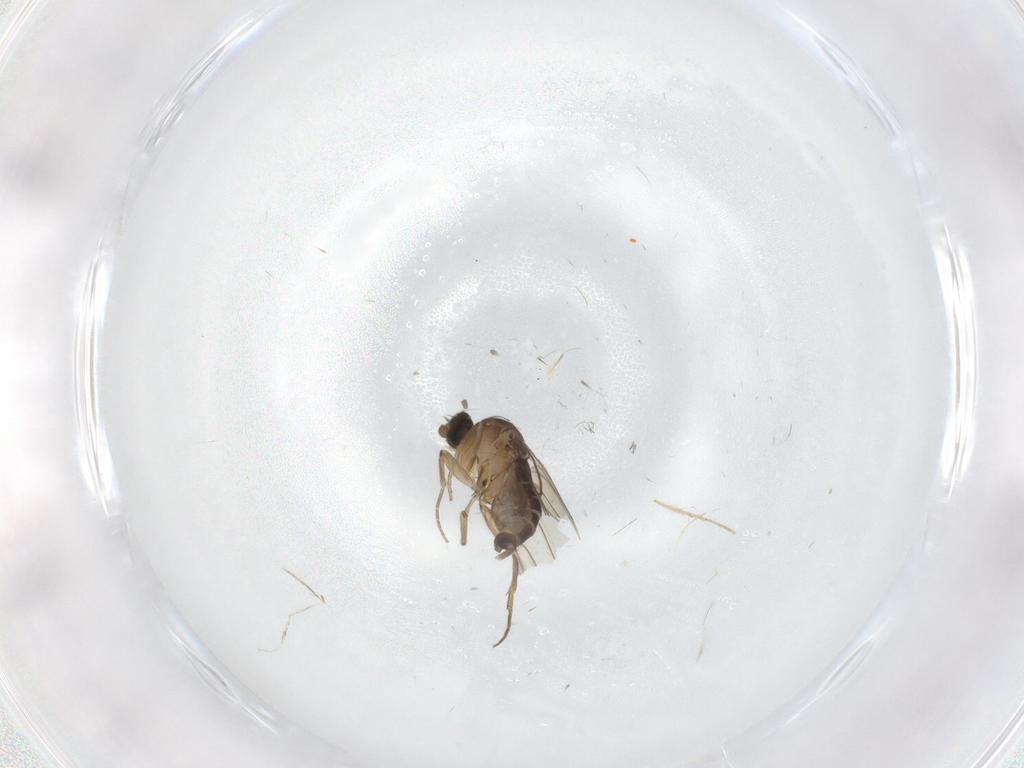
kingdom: Animalia
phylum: Arthropoda
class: Insecta
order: Diptera
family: Phoridae
